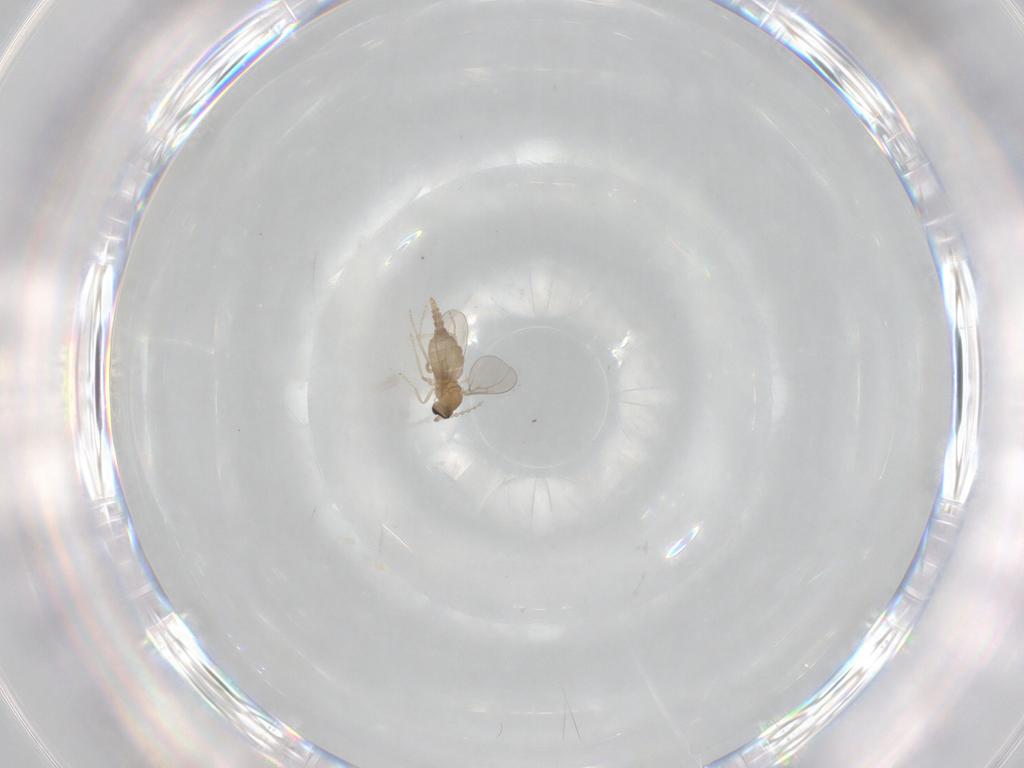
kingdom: Animalia
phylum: Arthropoda
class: Insecta
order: Diptera
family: Cecidomyiidae
